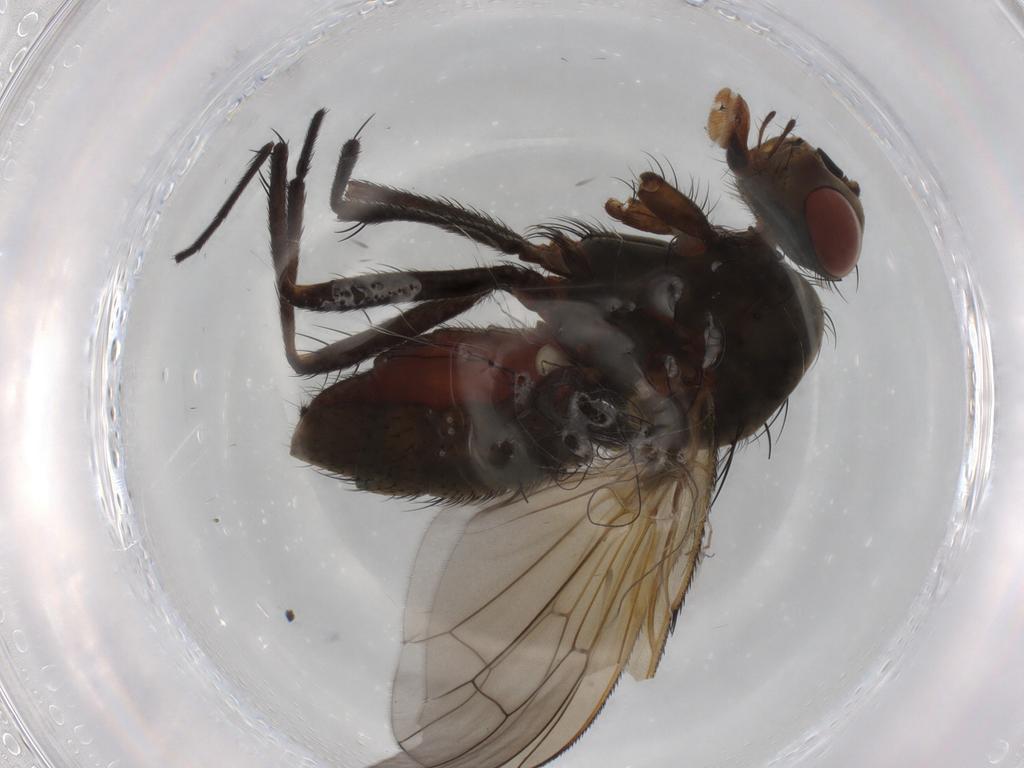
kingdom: Animalia
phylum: Arthropoda
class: Insecta
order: Diptera
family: Anthomyiidae
